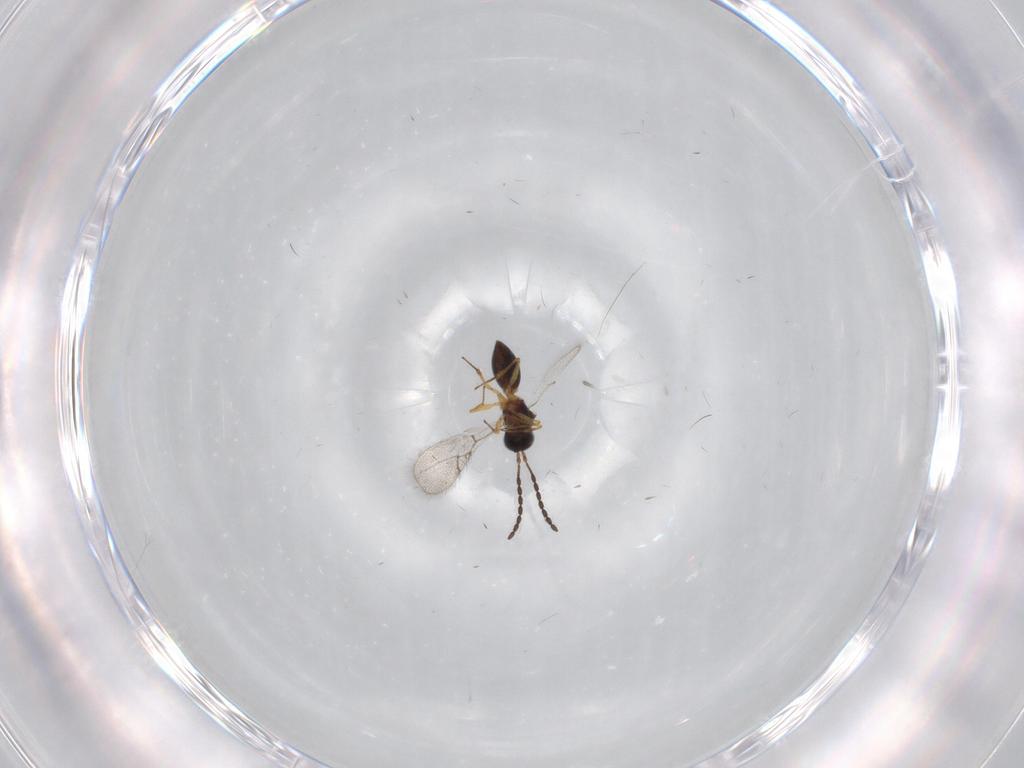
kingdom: Animalia
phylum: Arthropoda
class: Insecta
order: Hymenoptera
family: Figitidae
